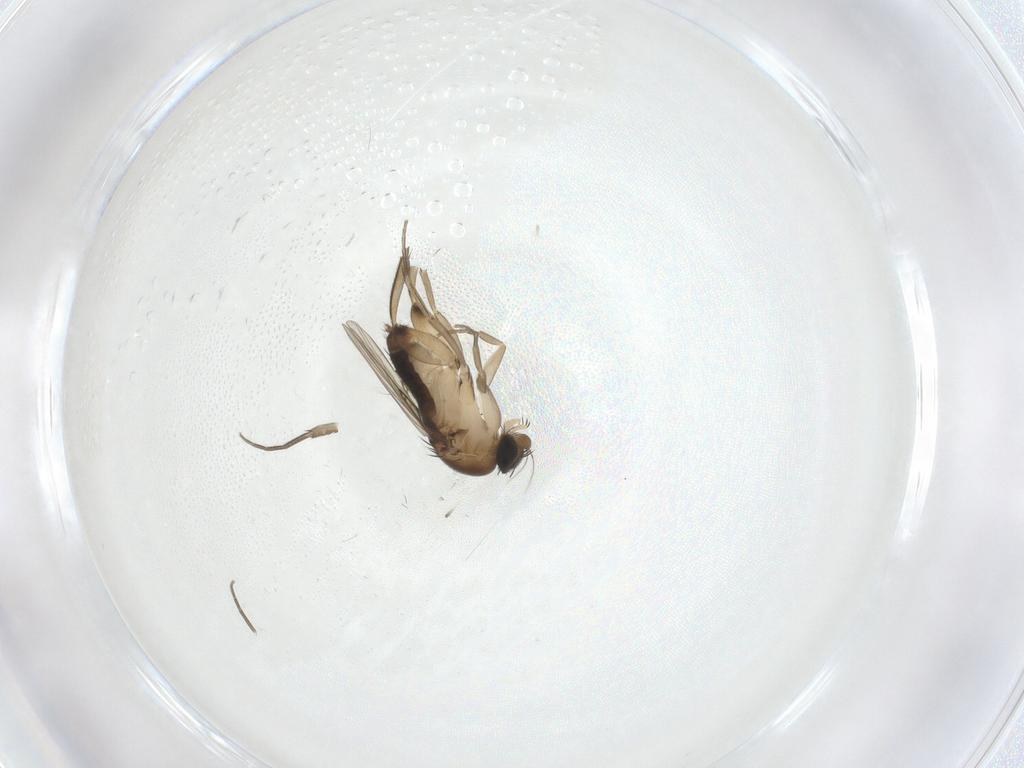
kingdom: Animalia
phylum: Arthropoda
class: Insecta
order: Diptera
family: Phoridae
